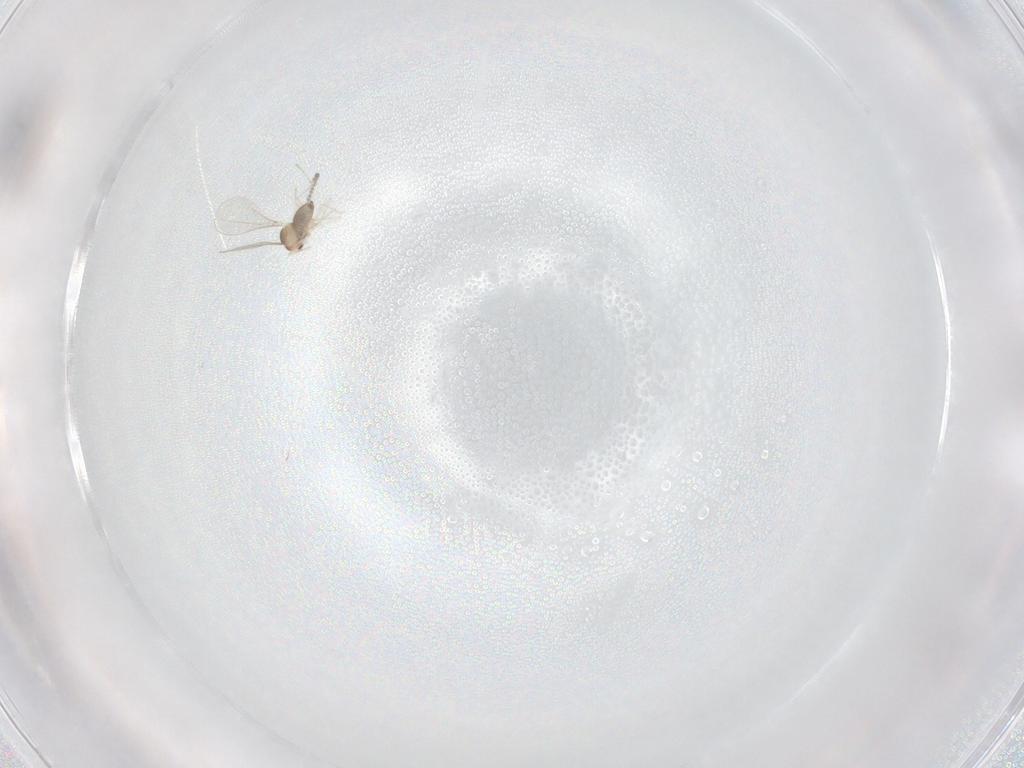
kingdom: Animalia
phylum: Arthropoda
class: Insecta
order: Diptera
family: Cecidomyiidae
